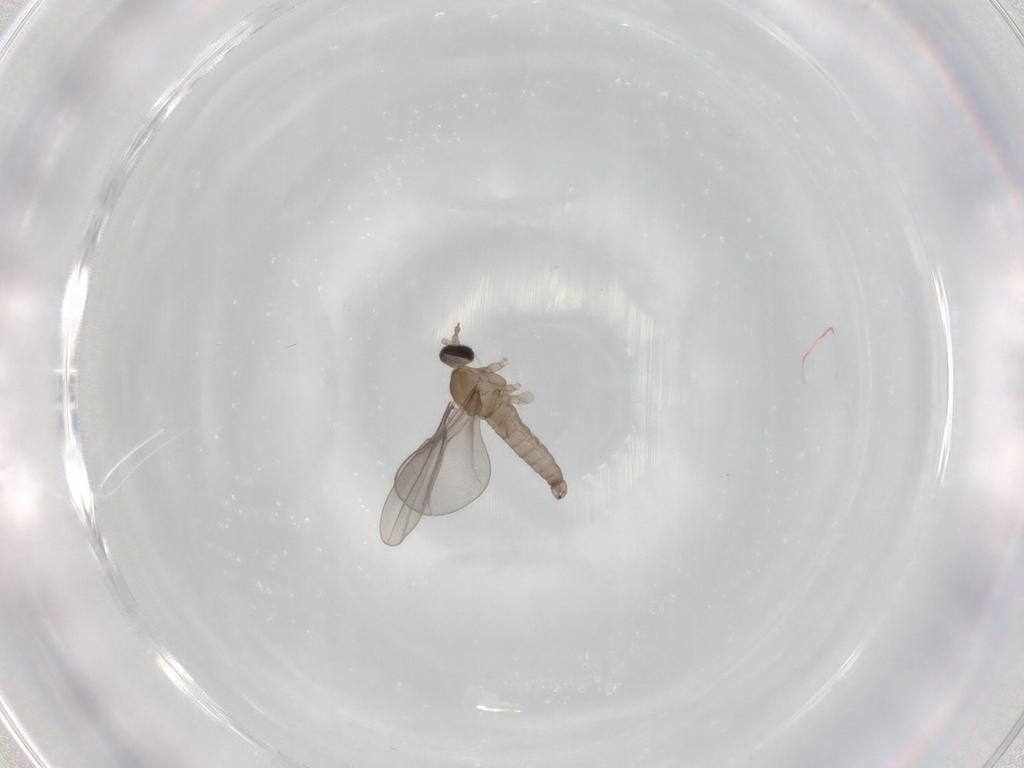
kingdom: Animalia
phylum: Arthropoda
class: Insecta
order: Diptera
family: Cecidomyiidae
